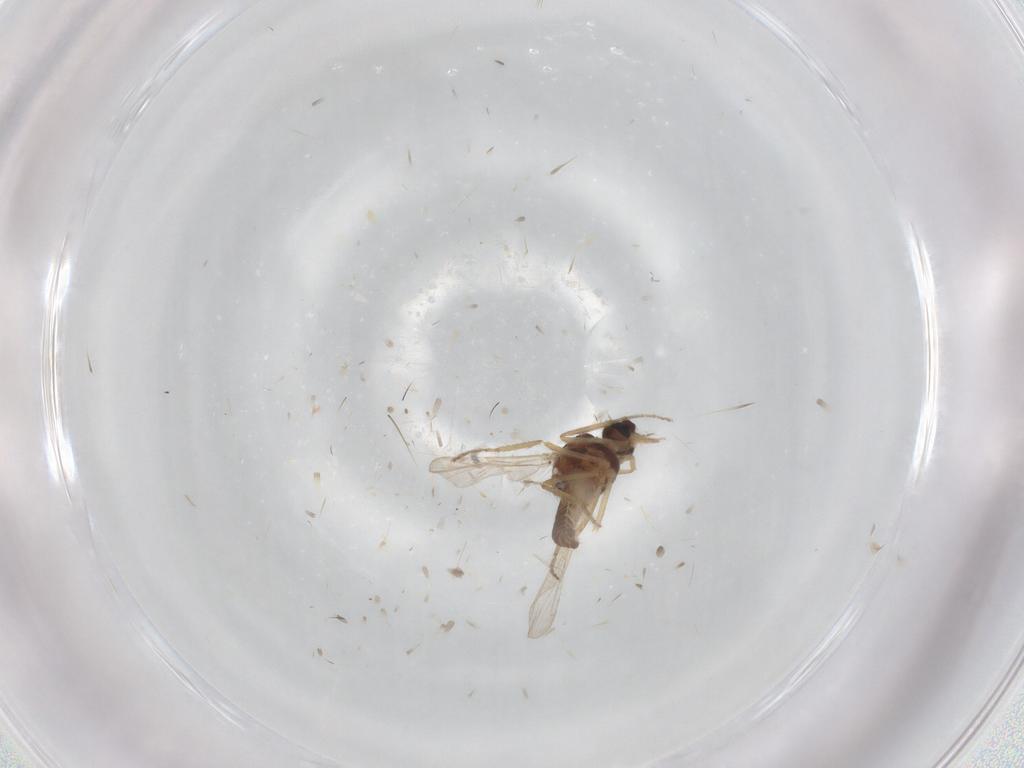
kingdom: Animalia
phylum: Arthropoda
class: Insecta
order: Diptera
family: Ceratopogonidae
